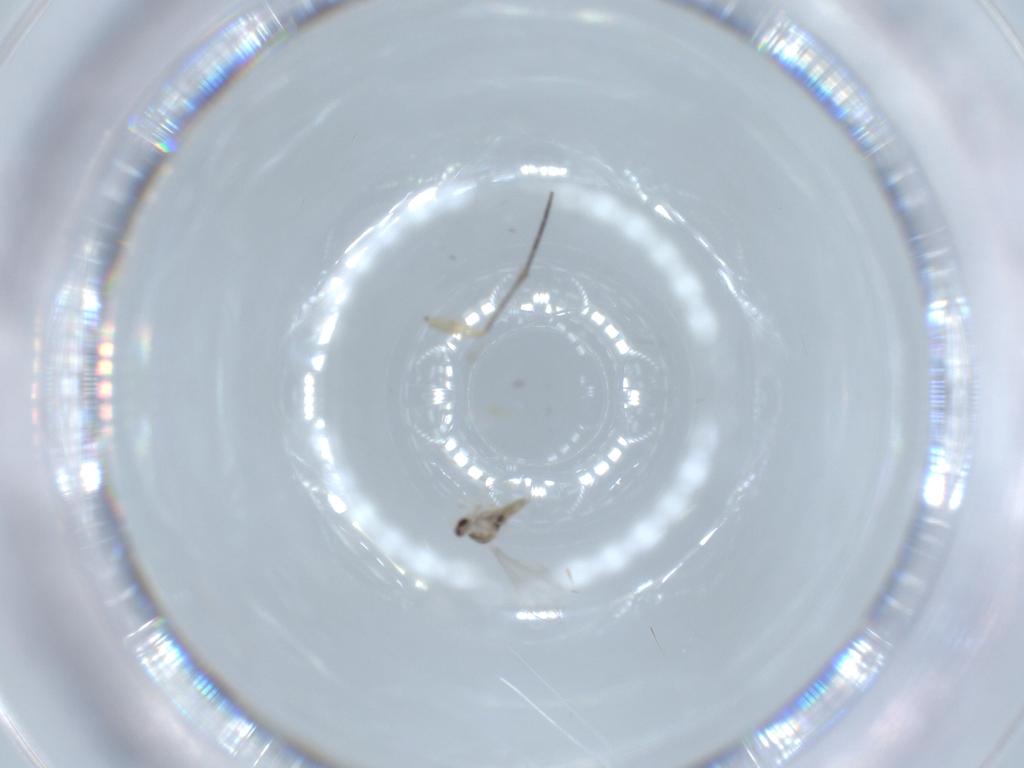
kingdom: Animalia
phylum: Arthropoda
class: Insecta
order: Diptera
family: Cecidomyiidae
